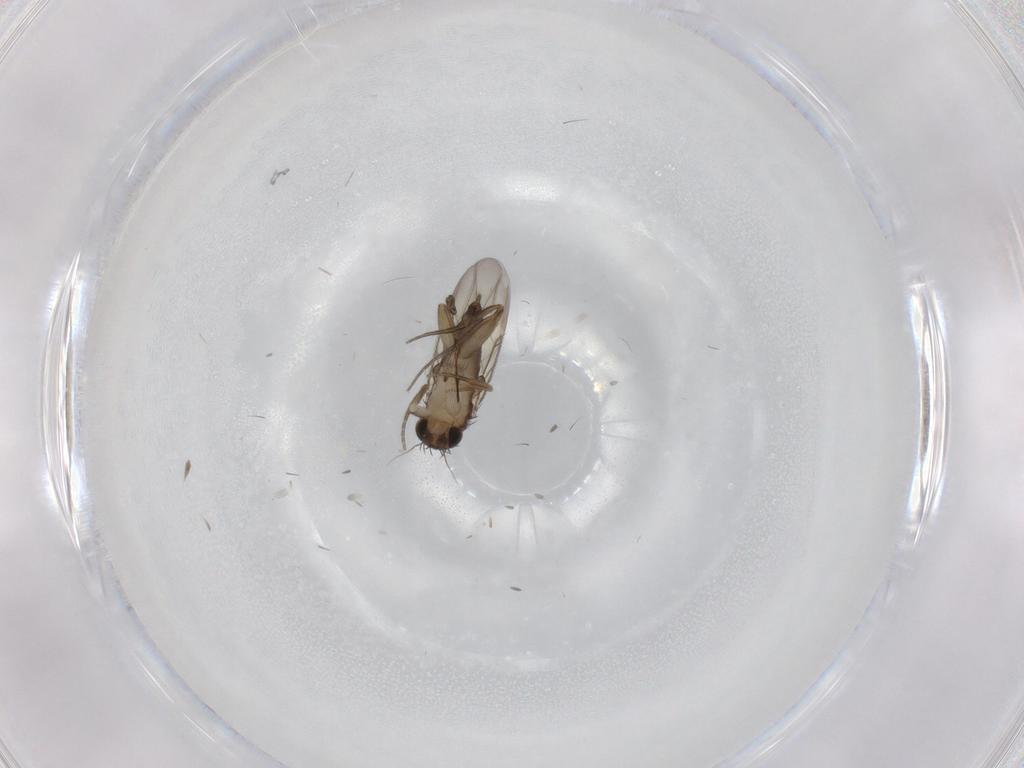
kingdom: Animalia
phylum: Arthropoda
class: Insecta
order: Diptera
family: Phoridae
